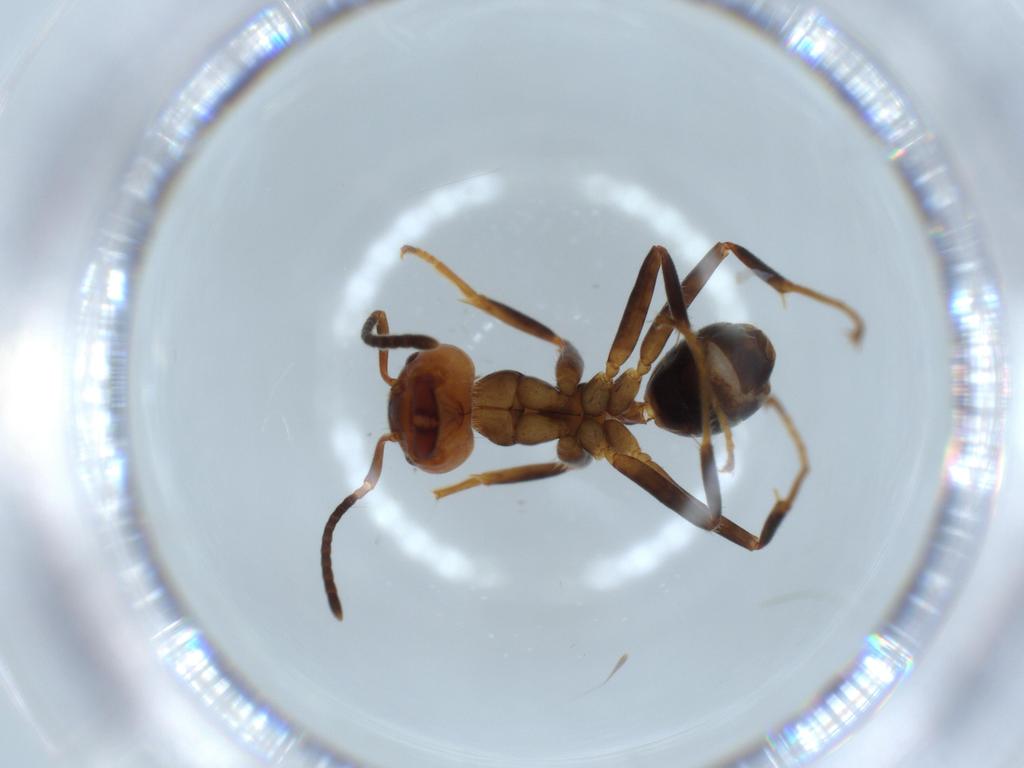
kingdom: Animalia
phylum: Arthropoda
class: Insecta
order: Hymenoptera
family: Formicidae
